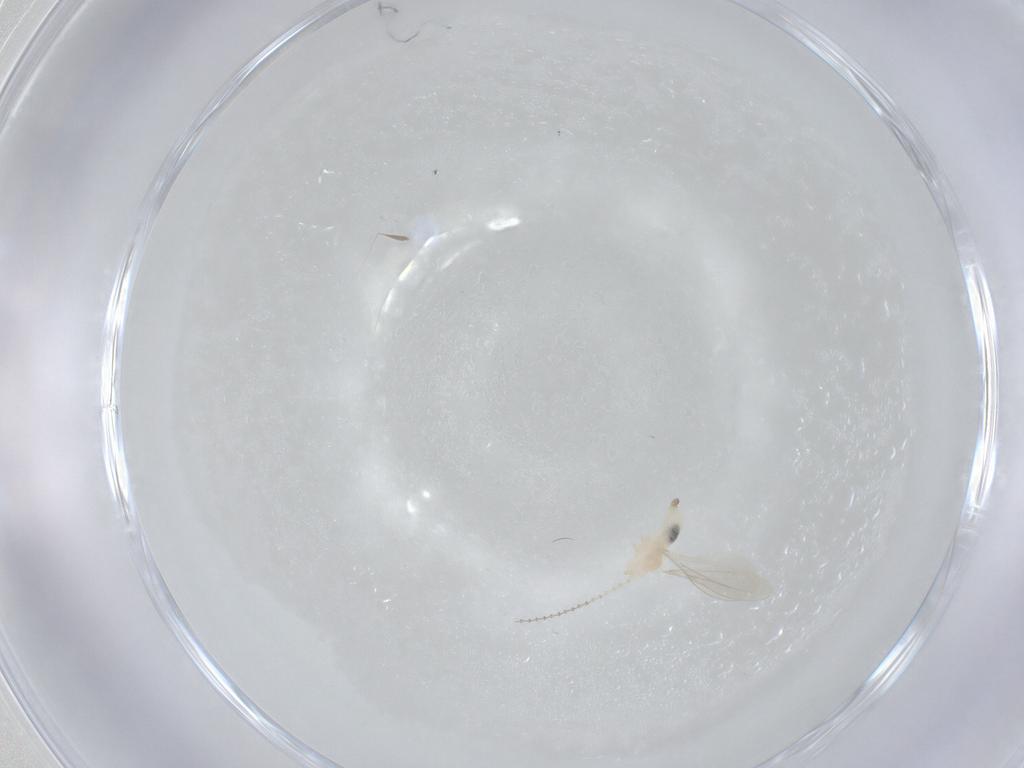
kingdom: Animalia
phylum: Arthropoda
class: Insecta
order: Diptera
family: Cecidomyiidae
